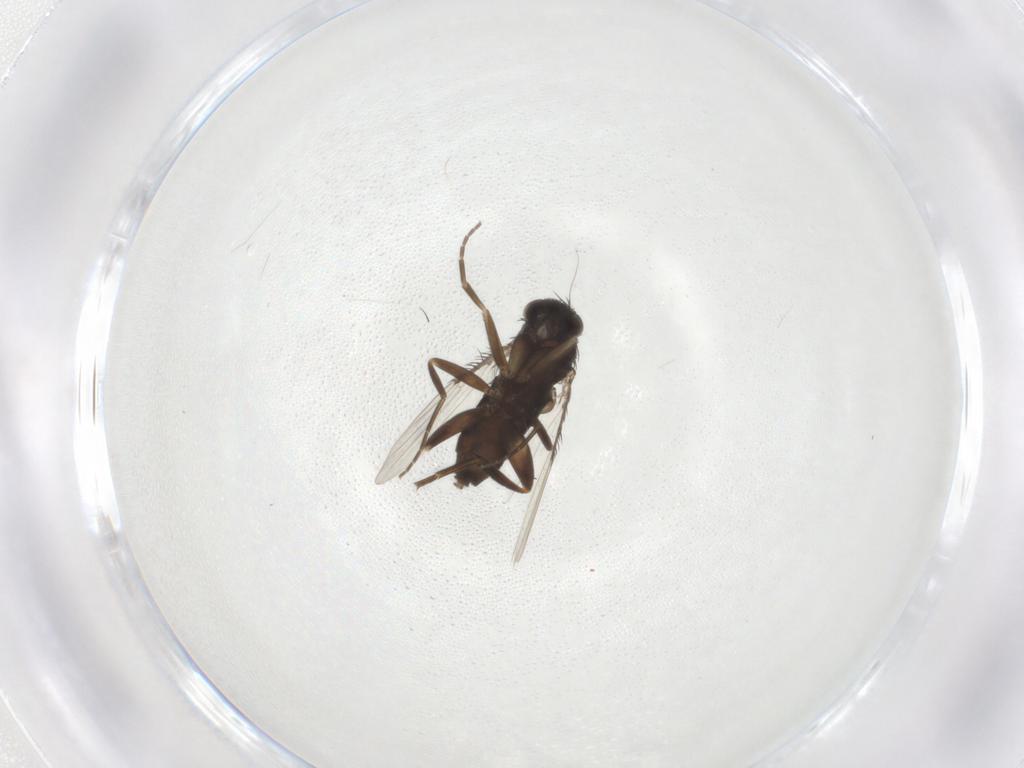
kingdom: Animalia
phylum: Arthropoda
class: Insecta
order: Diptera
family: Phoridae
